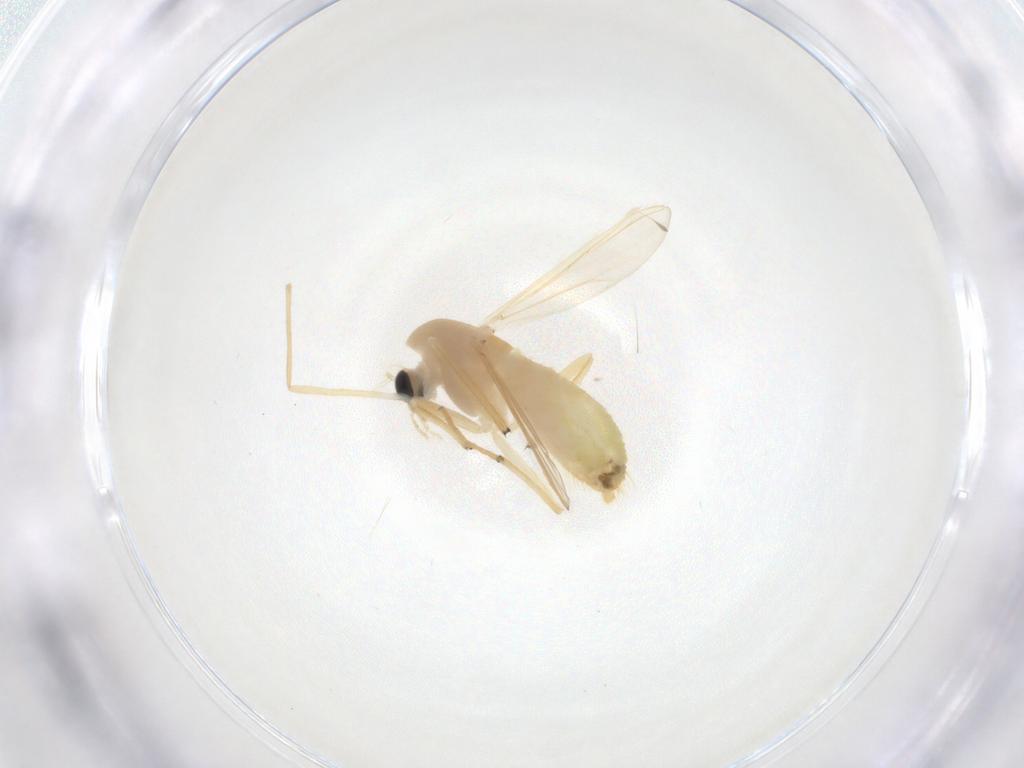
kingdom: Animalia
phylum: Arthropoda
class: Insecta
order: Diptera
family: Chironomidae
